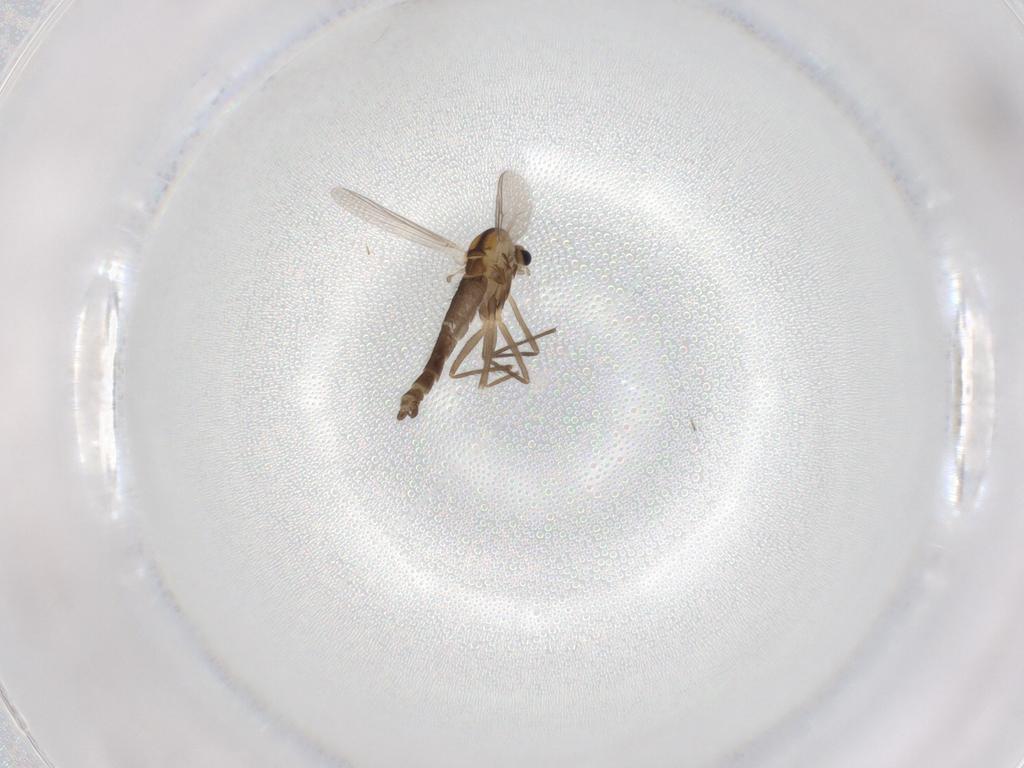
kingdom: Animalia
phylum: Arthropoda
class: Insecta
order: Diptera
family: Chironomidae
